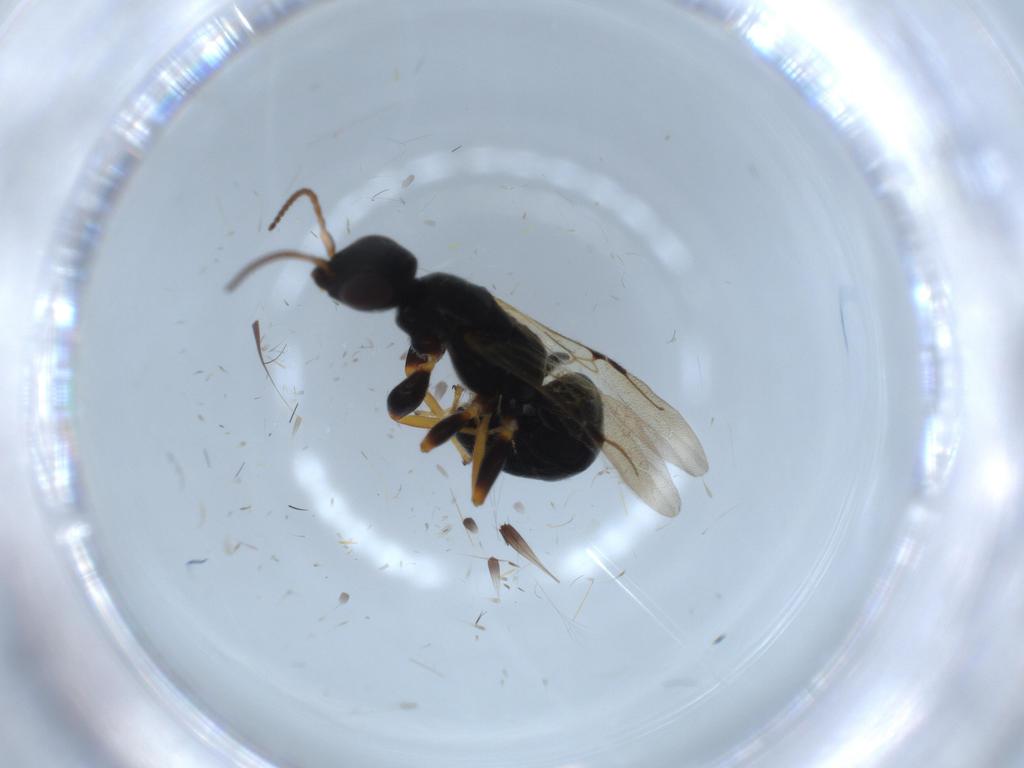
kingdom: Animalia
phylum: Arthropoda
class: Insecta
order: Hymenoptera
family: Bethylidae
